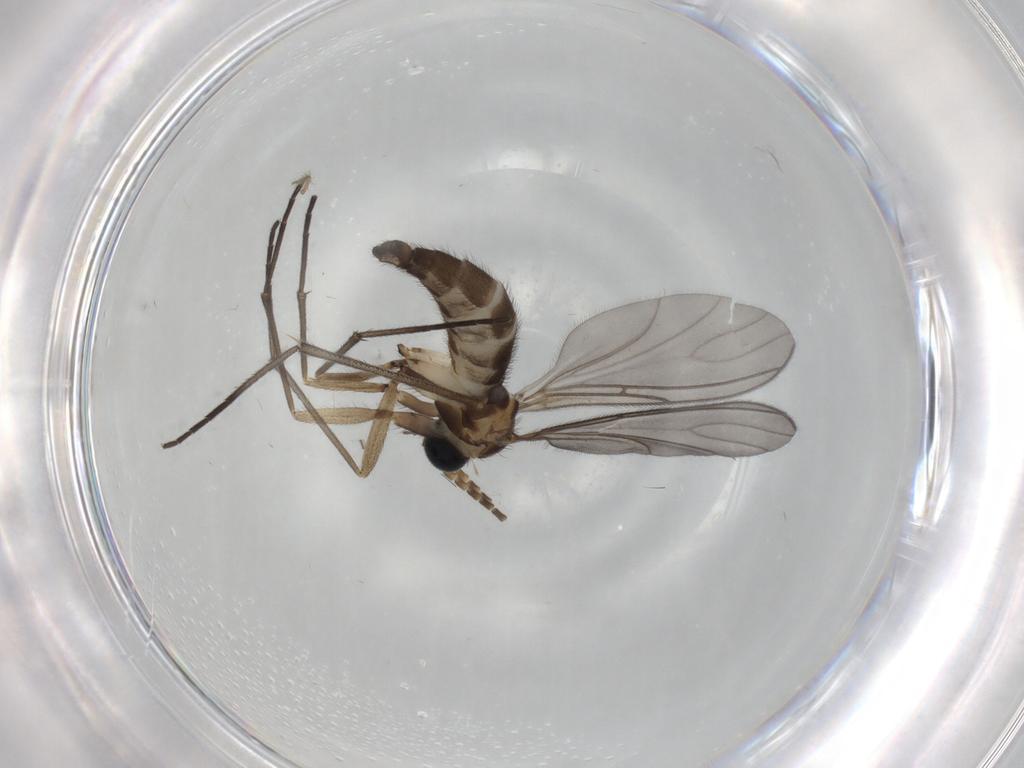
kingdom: Animalia
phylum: Arthropoda
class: Insecta
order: Diptera
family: Sciaridae
